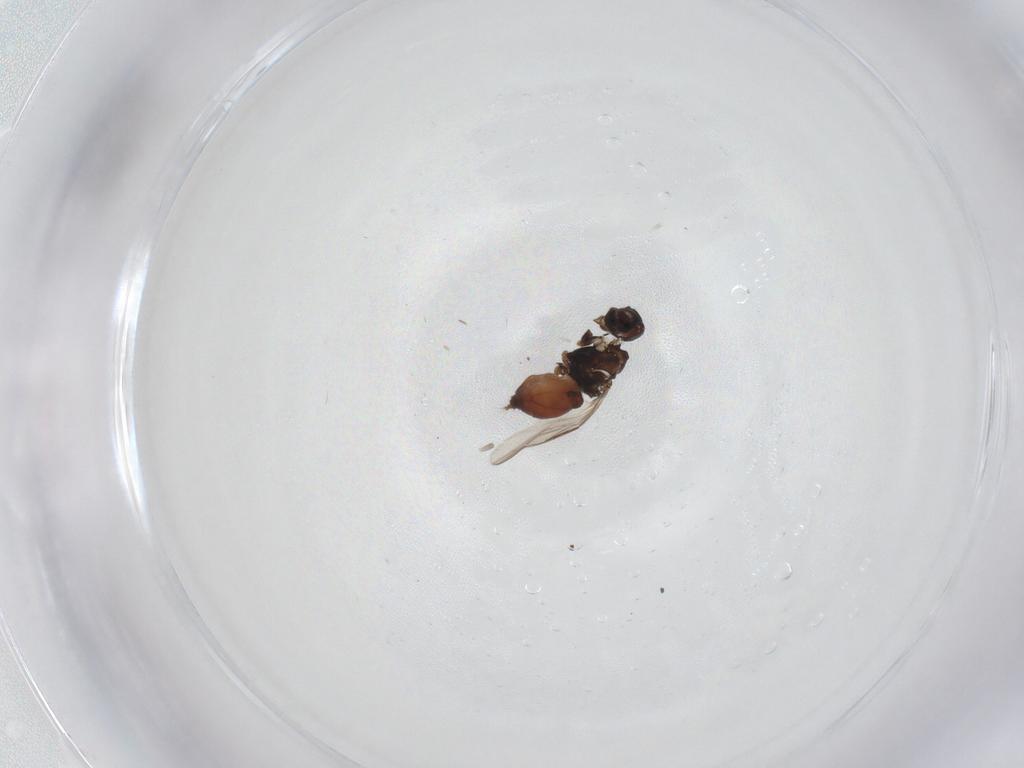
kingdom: Animalia
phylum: Arthropoda
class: Insecta
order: Diptera
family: Sphaeroceridae
